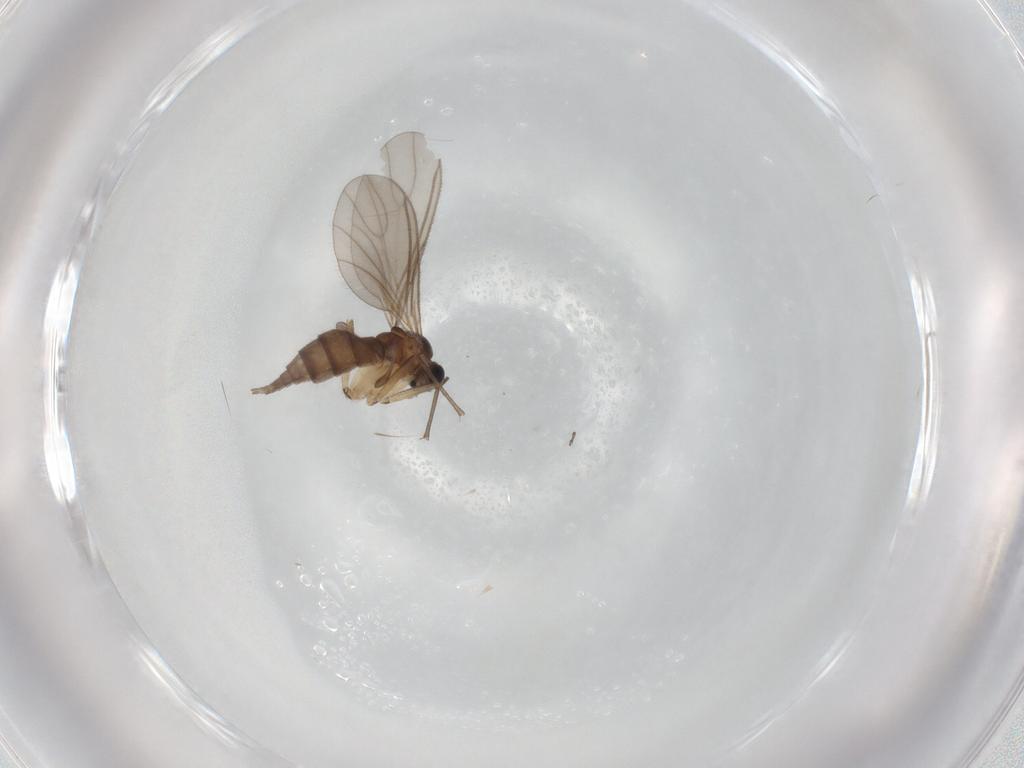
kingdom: Animalia
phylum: Arthropoda
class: Insecta
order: Diptera
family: Sciaridae
